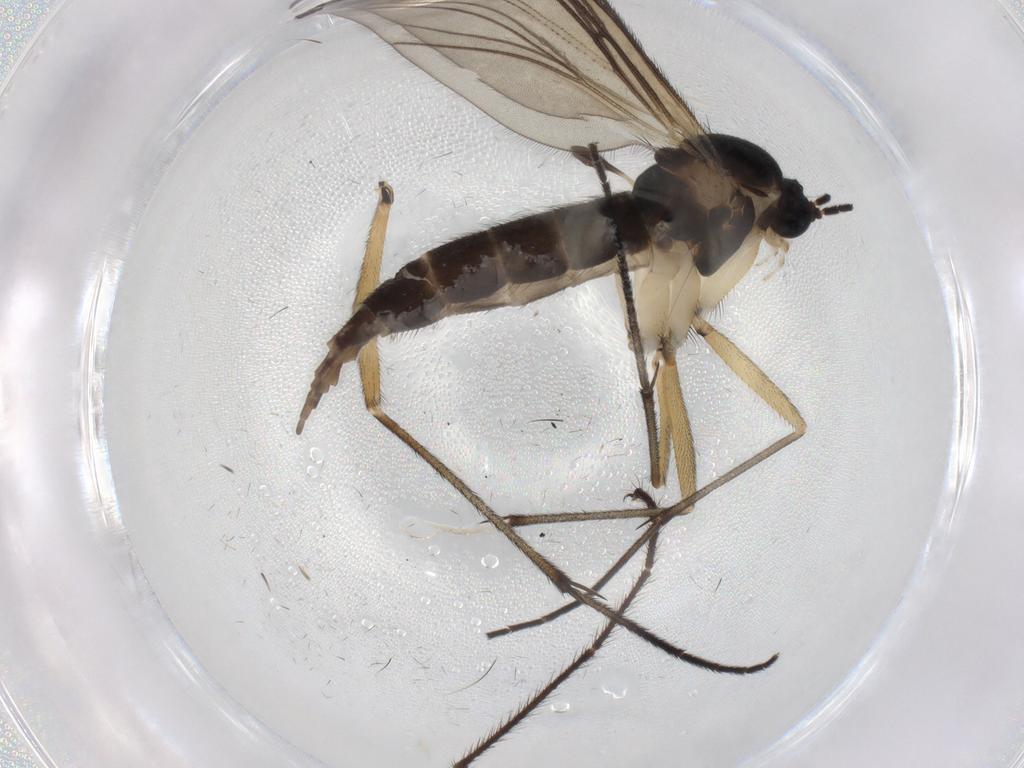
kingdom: Animalia
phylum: Arthropoda
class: Insecta
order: Diptera
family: Sciaridae
